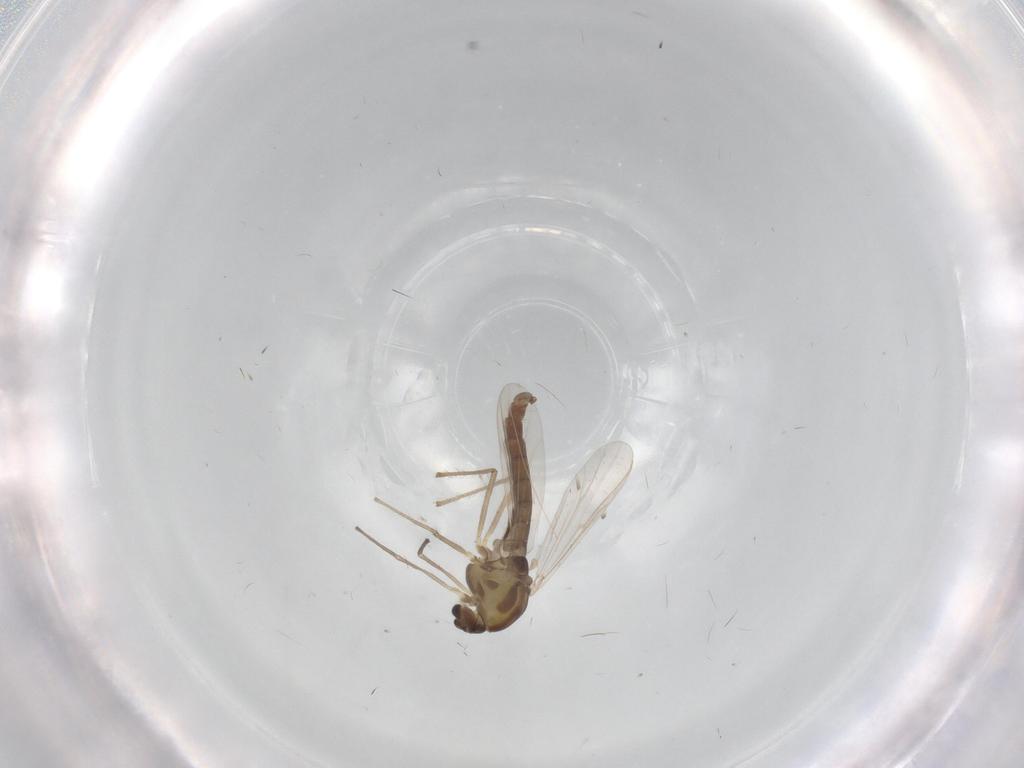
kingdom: Animalia
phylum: Arthropoda
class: Insecta
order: Diptera
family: Chironomidae
